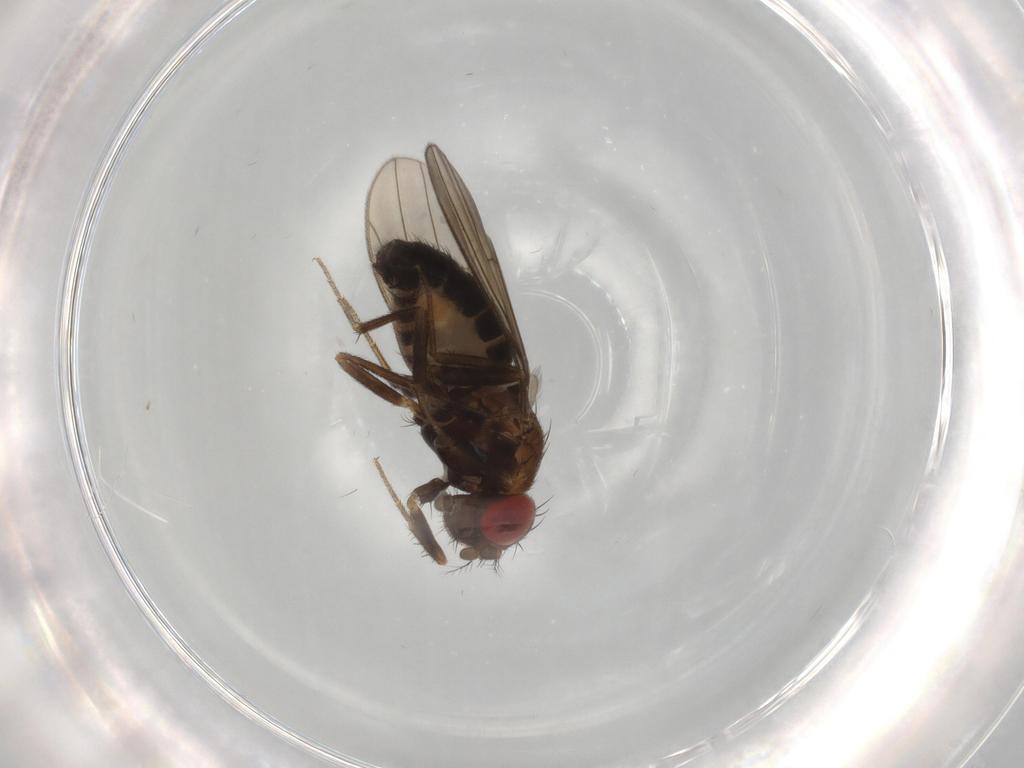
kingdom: Animalia
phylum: Arthropoda
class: Insecta
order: Diptera
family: Drosophilidae
